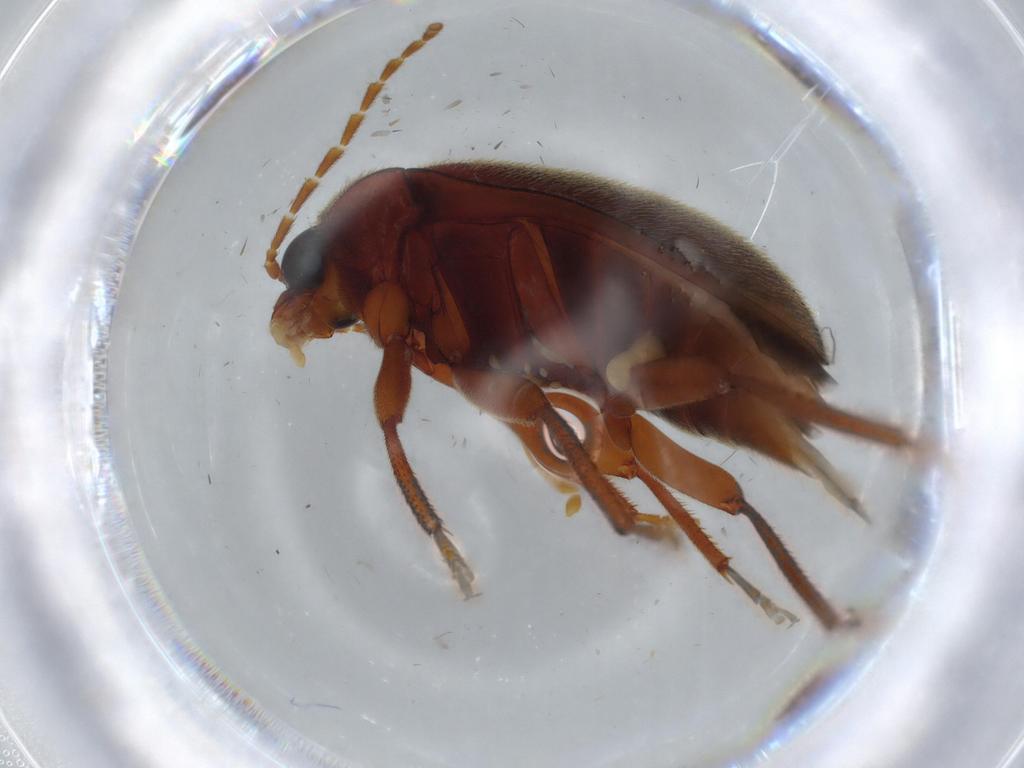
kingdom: Animalia
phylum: Arthropoda
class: Insecta
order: Coleoptera
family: Ptilodactylidae
